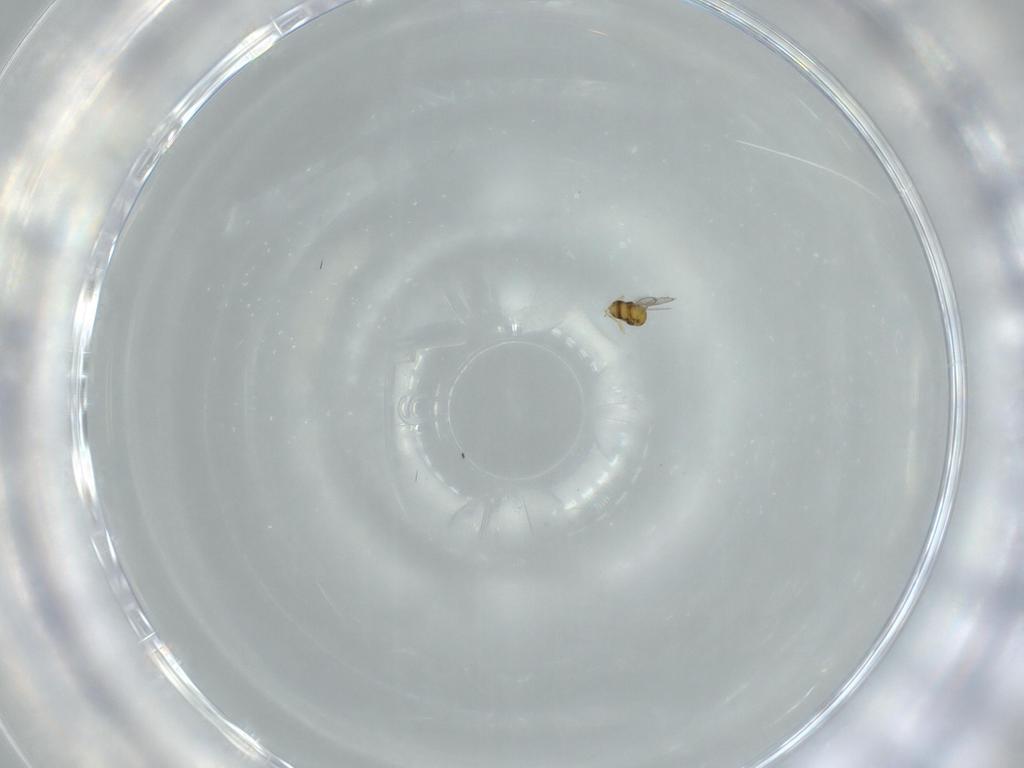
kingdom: Animalia
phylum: Arthropoda
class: Insecta
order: Hymenoptera
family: Aphelinidae
